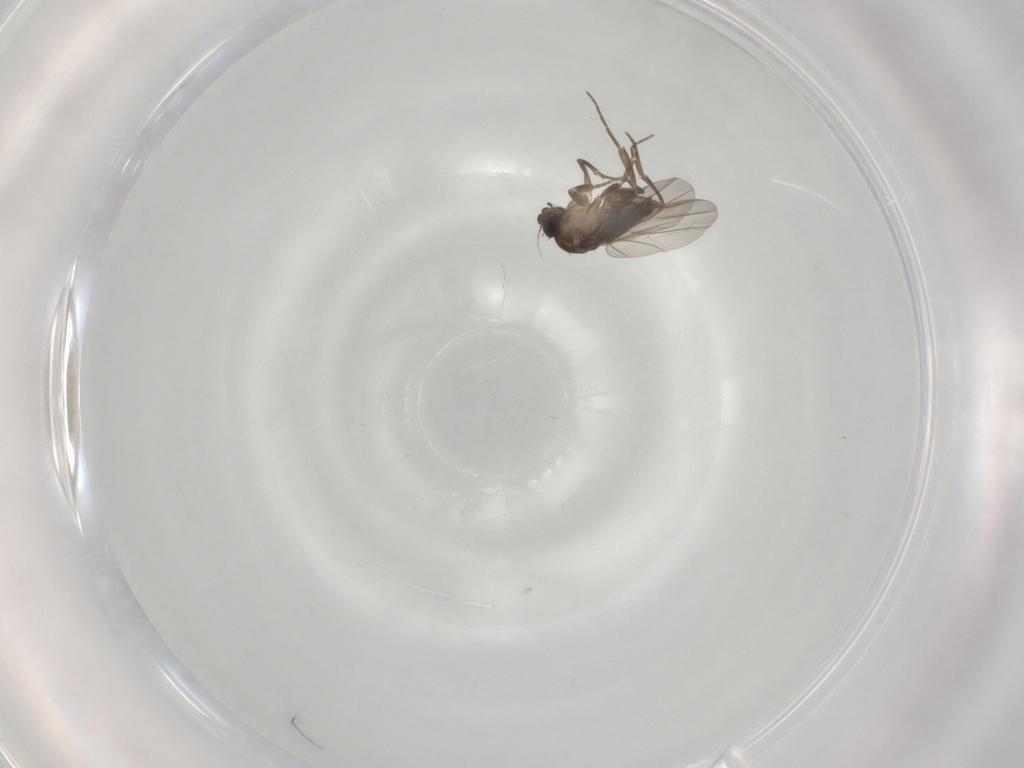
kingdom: Animalia
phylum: Arthropoda
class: Insecta
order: Diptera
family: Phoridae
